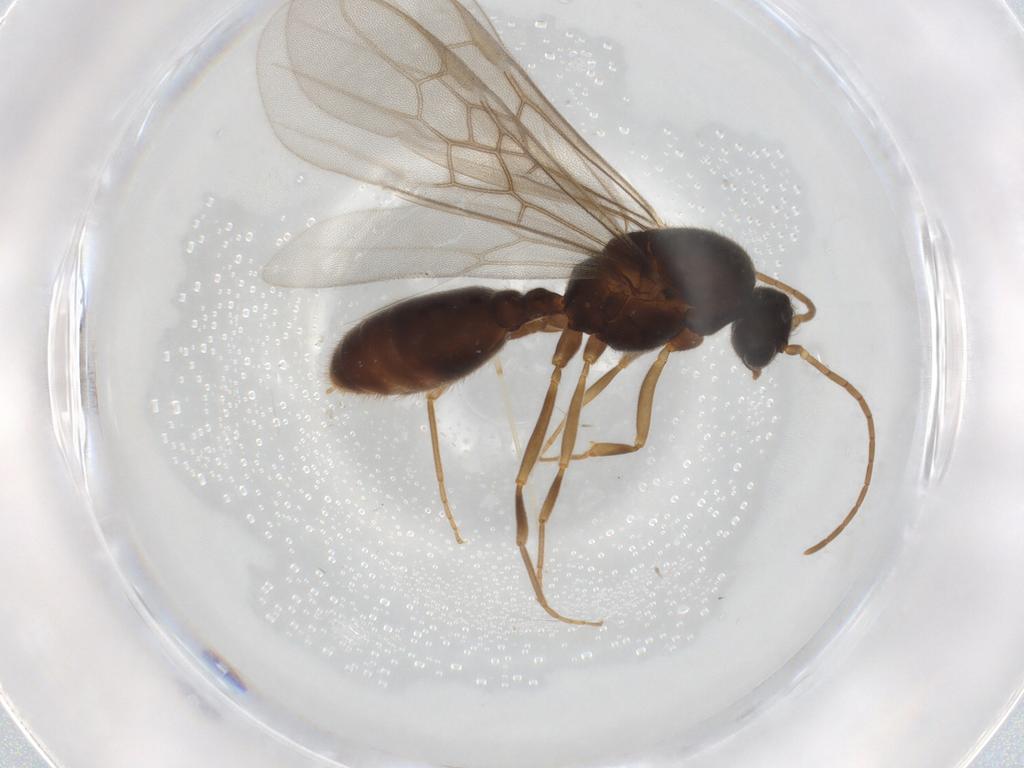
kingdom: Animalia
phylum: Arthropoda
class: Insecta
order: Hymenoptera
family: Formicidae
